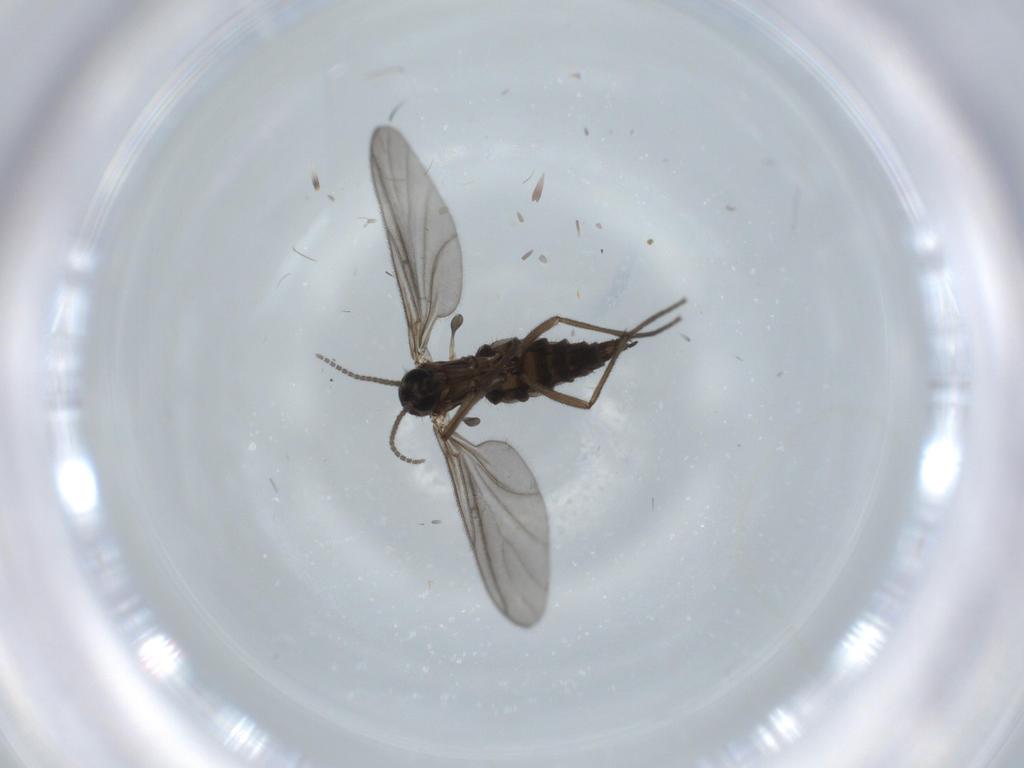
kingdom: Animalia
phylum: Arthropoda
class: Insecta
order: Diptera
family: Sciaridae
